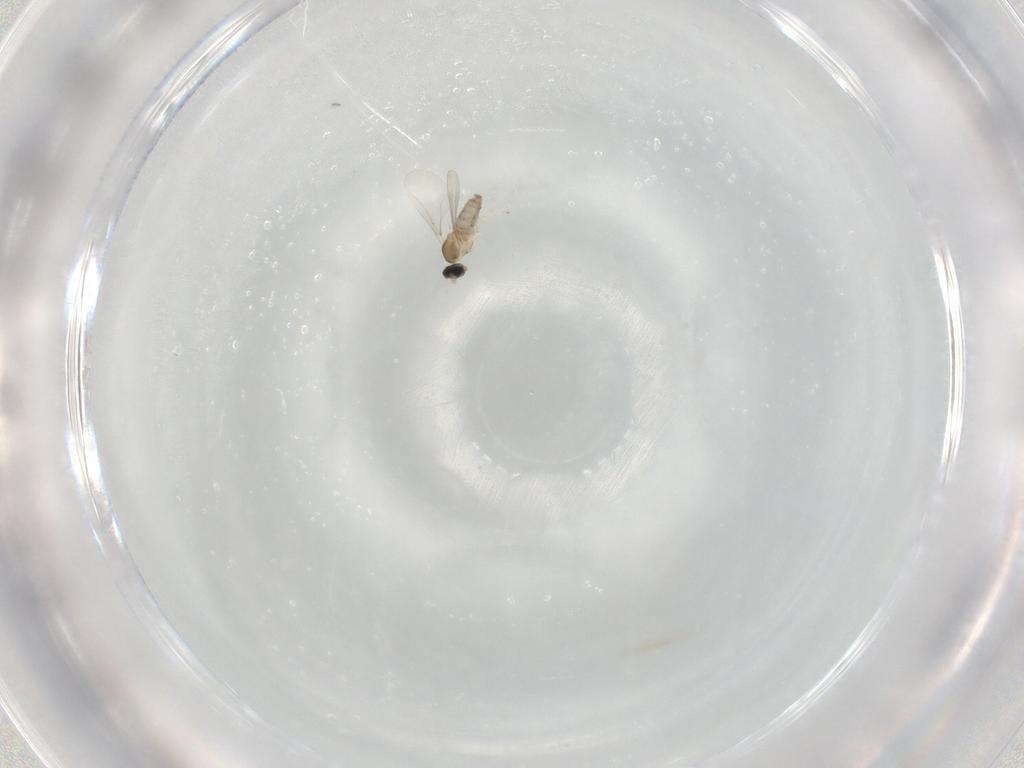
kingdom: Animalia
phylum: Arthropoda
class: Insecta
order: Diptera
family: Cecidomyiidae
